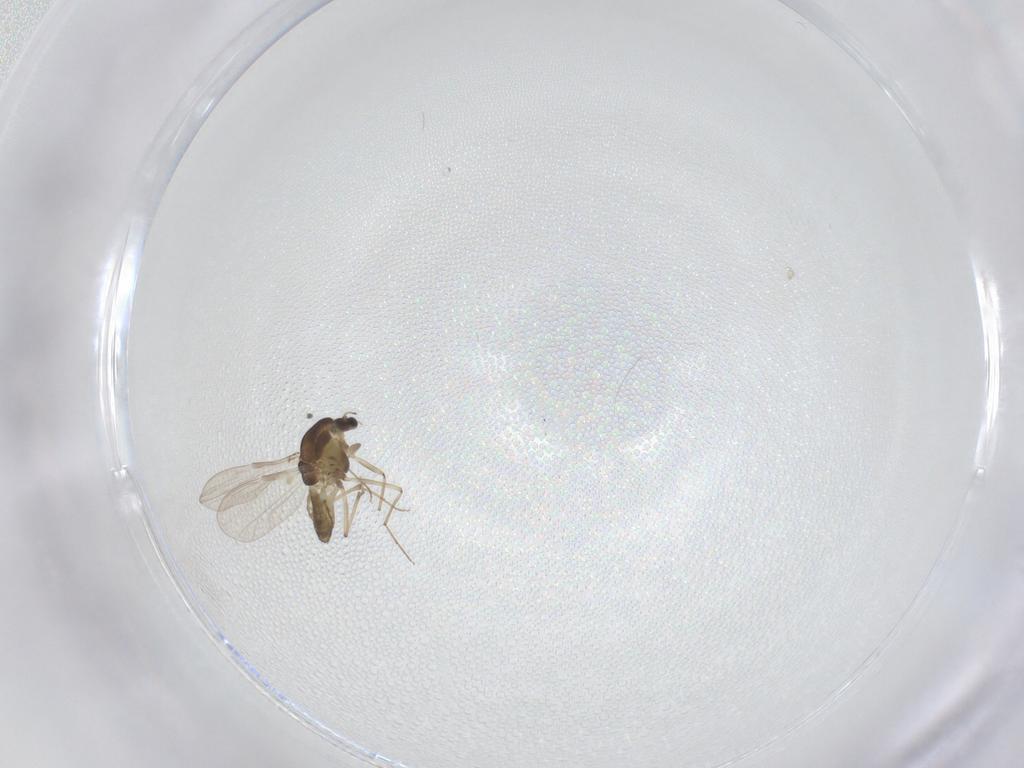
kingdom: Animalia
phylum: Arthropoda
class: Insecta
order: Diptera
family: Chironomidae
